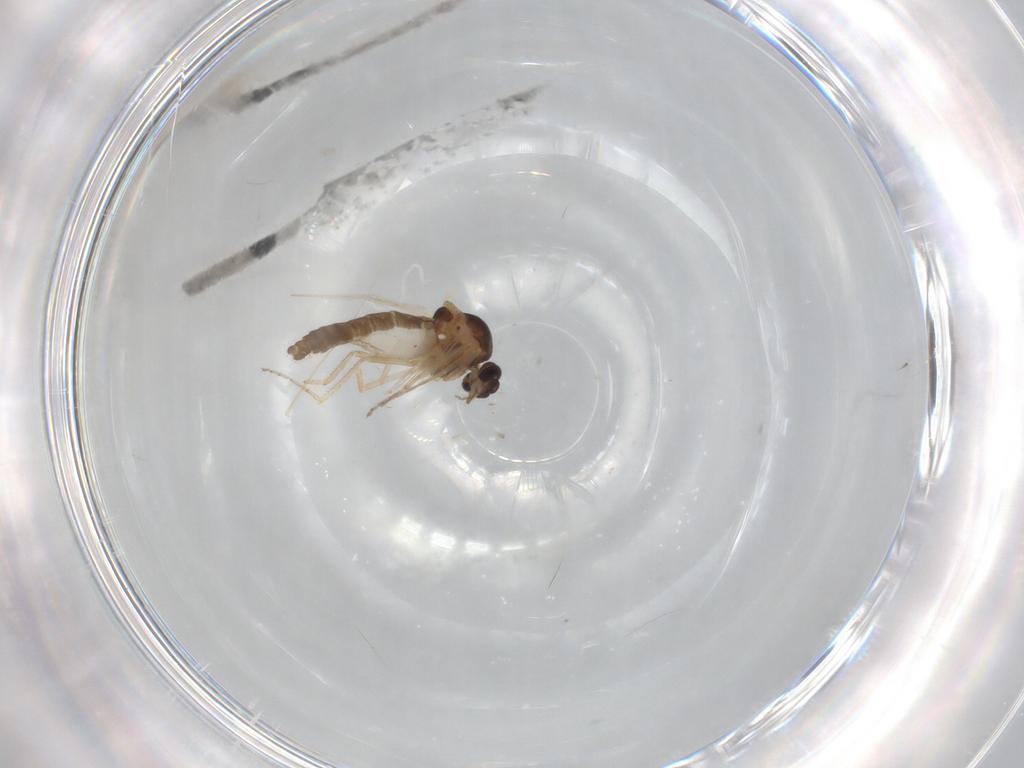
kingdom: Animalia
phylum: Arthropoda
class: Insecta
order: Diptera
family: Ceratopogonidae
